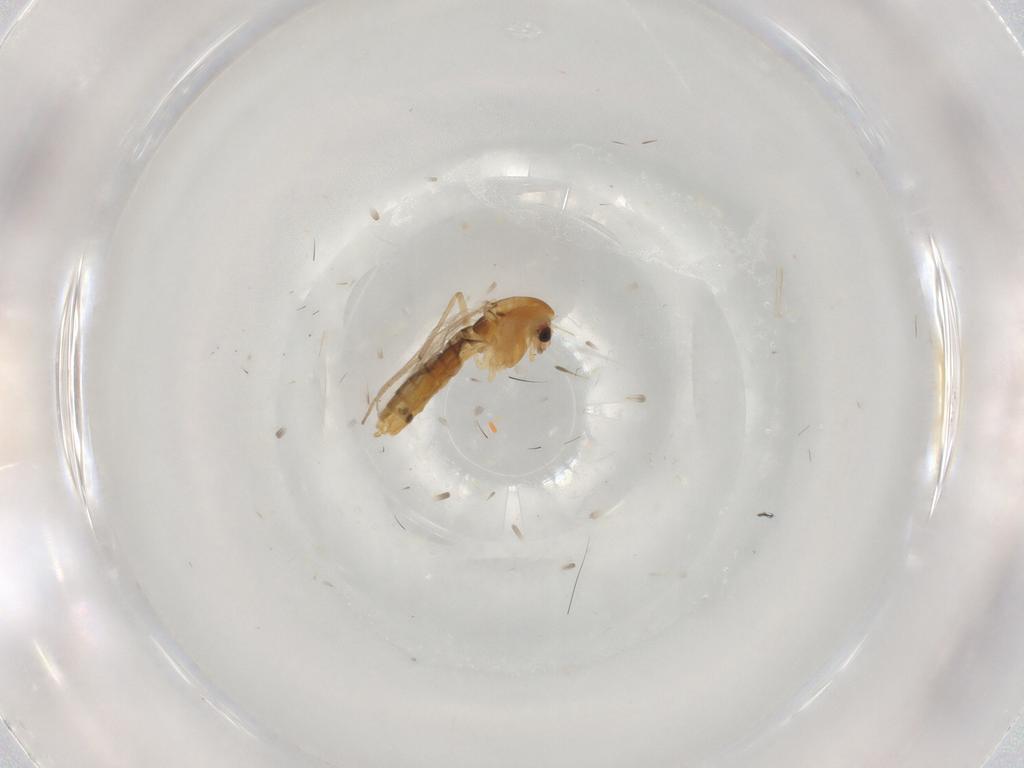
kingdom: Animalia
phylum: Arthropoda
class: Insecta
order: Diptera
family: Chironomidae
